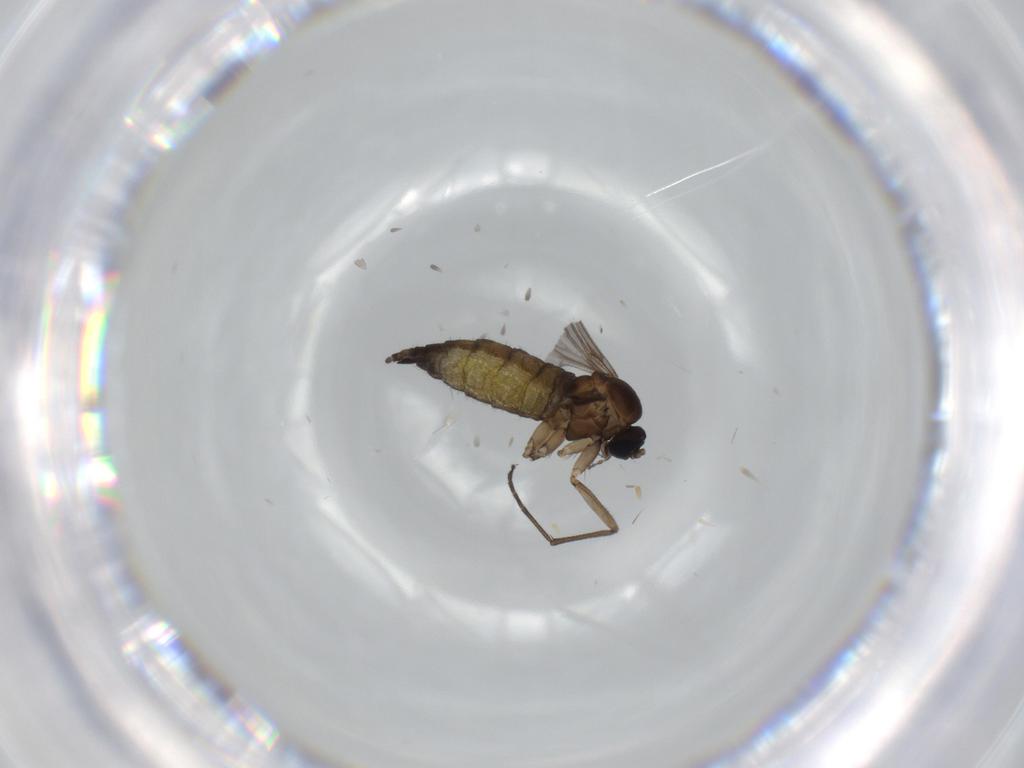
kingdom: Animalia
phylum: Arthropoda
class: Insecta
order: Diptera
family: Sciaridae
